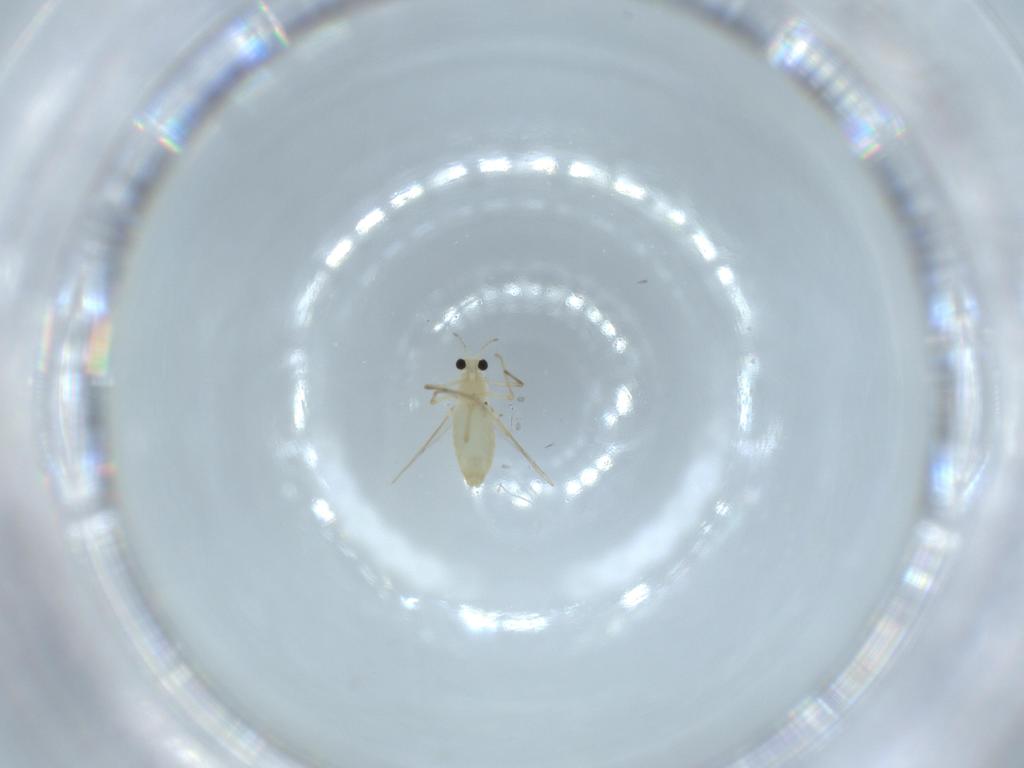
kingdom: Animalia
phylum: Arthropoda
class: Insecta
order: Diptera
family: Chironomidae
